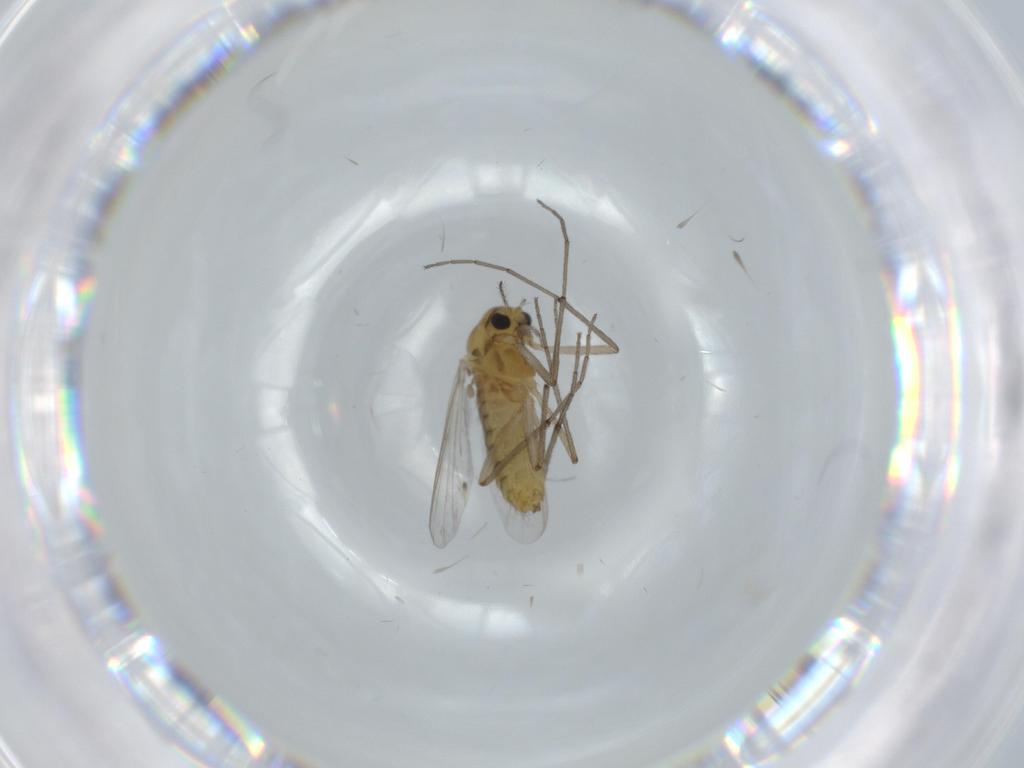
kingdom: Animalia
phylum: Arthropoda
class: Insecta
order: Diptera
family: Chironomidae
